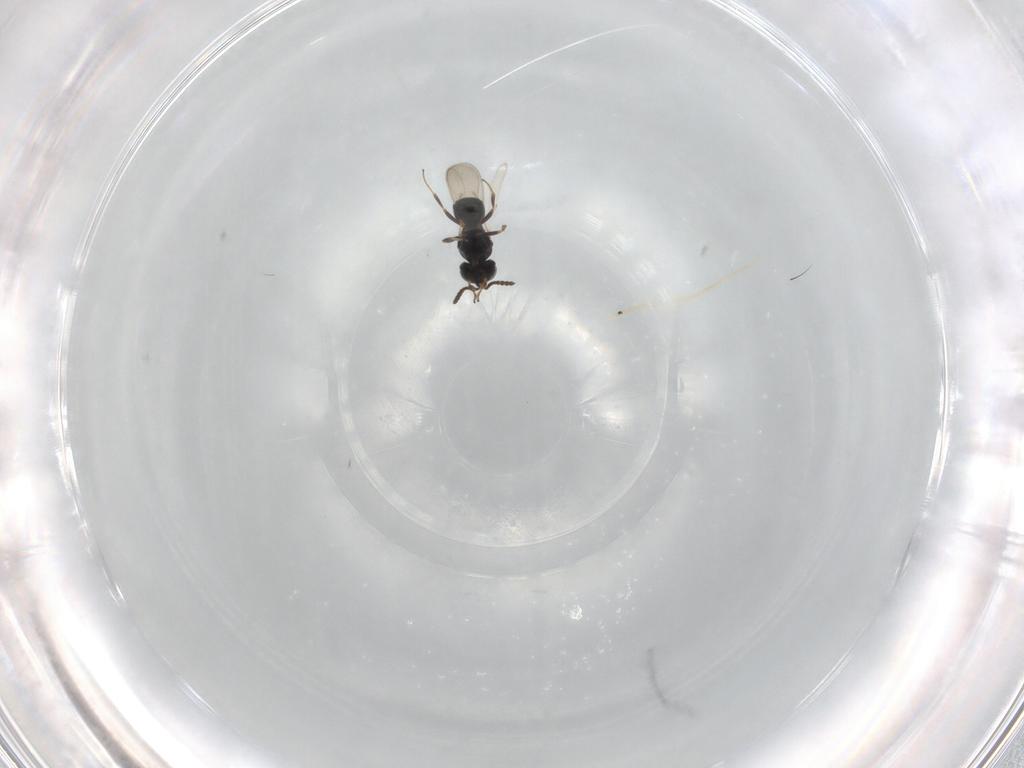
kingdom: Animalia
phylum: Arthropoda
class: Insecta
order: Hymenoptera
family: Scelionidae
